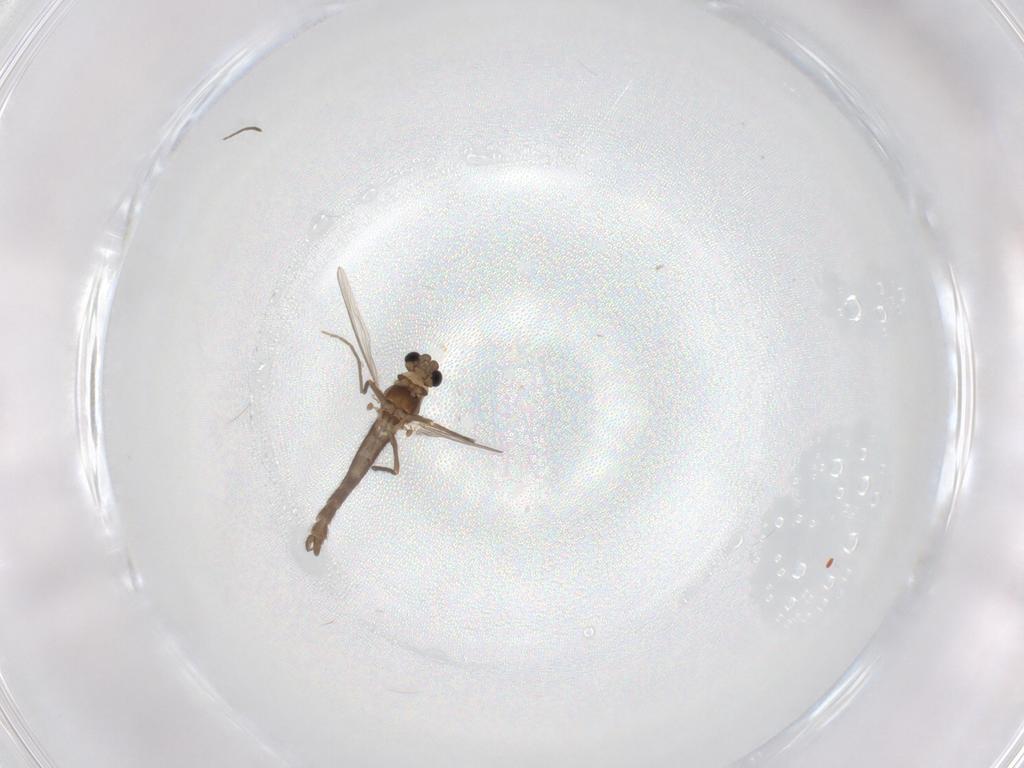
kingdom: Animalia
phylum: Arthropoda
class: Insecta
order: Diptera
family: Chironomidae
